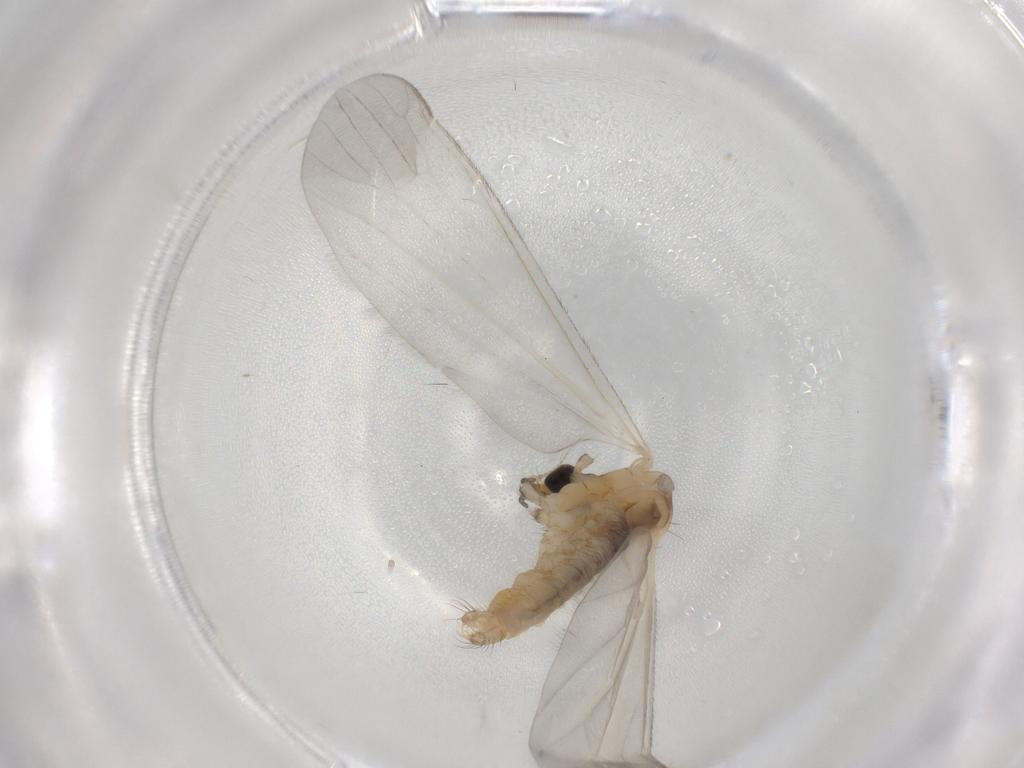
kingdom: Animalia
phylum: Arthropoda
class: Insecta
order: Diptera
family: Limoniidae
